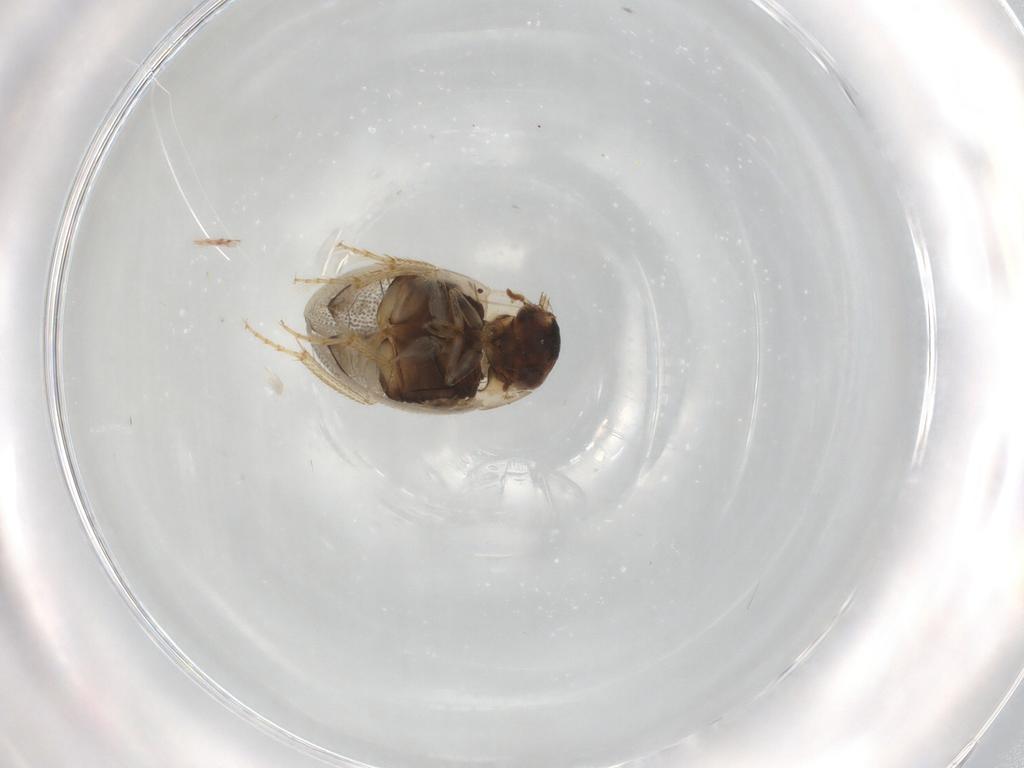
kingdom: Animalia
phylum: Arthropoda
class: Insecta
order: Coleoptera
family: Hydrophilidae
